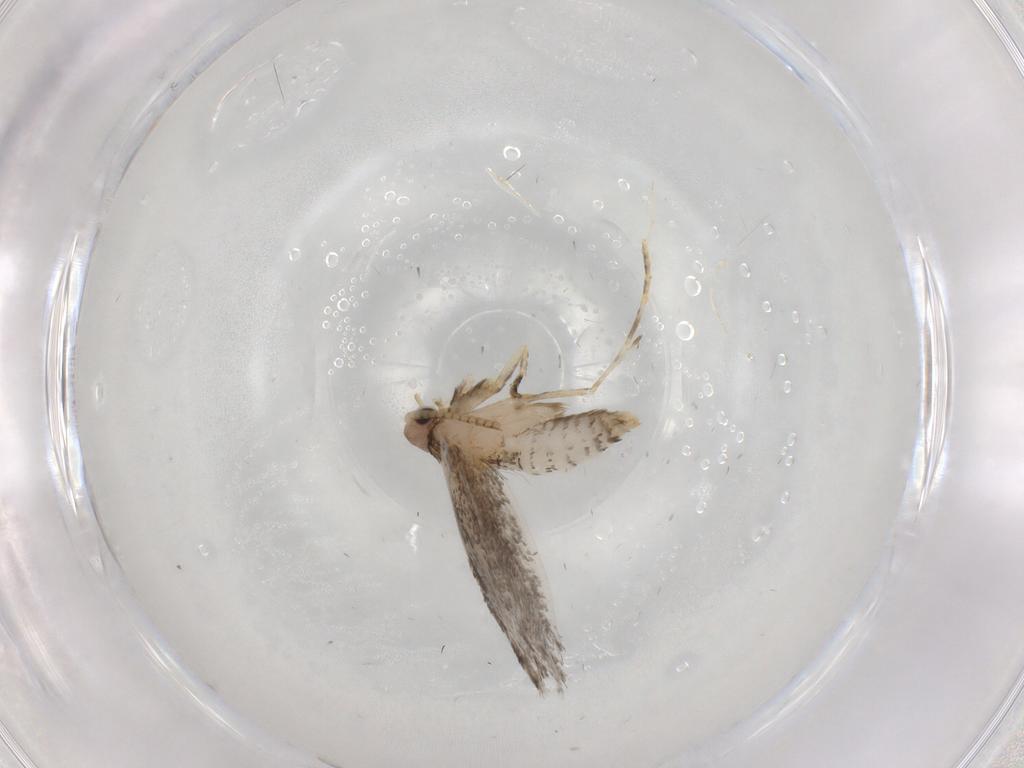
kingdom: Animalia
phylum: Arthropoda
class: Insecta
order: Lepidoptera
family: Tineidae
